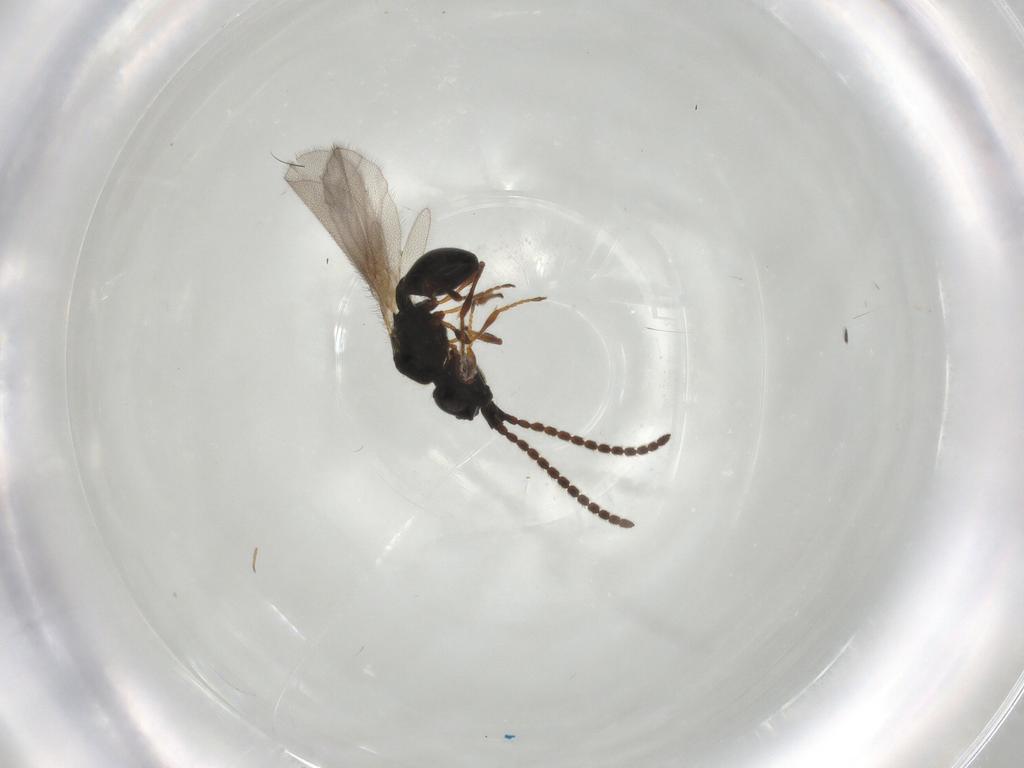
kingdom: Animalia
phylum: Arthropoda
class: Insecta
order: Hymenoptera
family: Diapriidae
